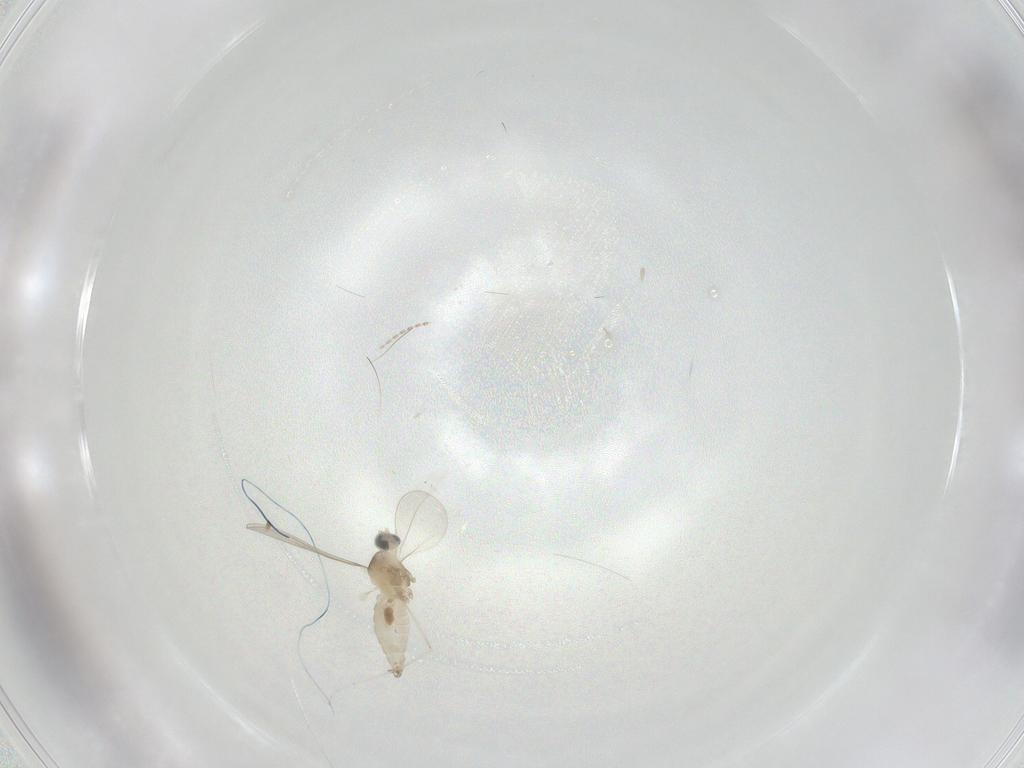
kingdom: Animalia
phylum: Arthropoda
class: Insecta
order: Diptera
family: Cecidomyiidae
